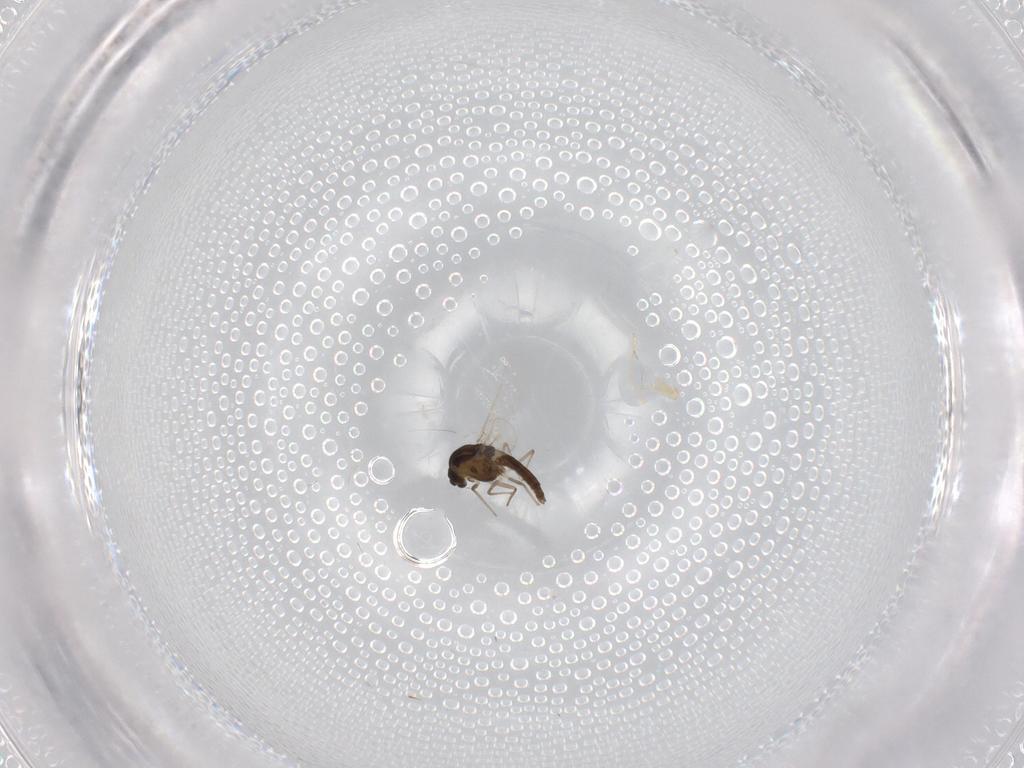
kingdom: Animalia
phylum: Arthropoda
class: Insecta
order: Diptera
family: Chironomidae
